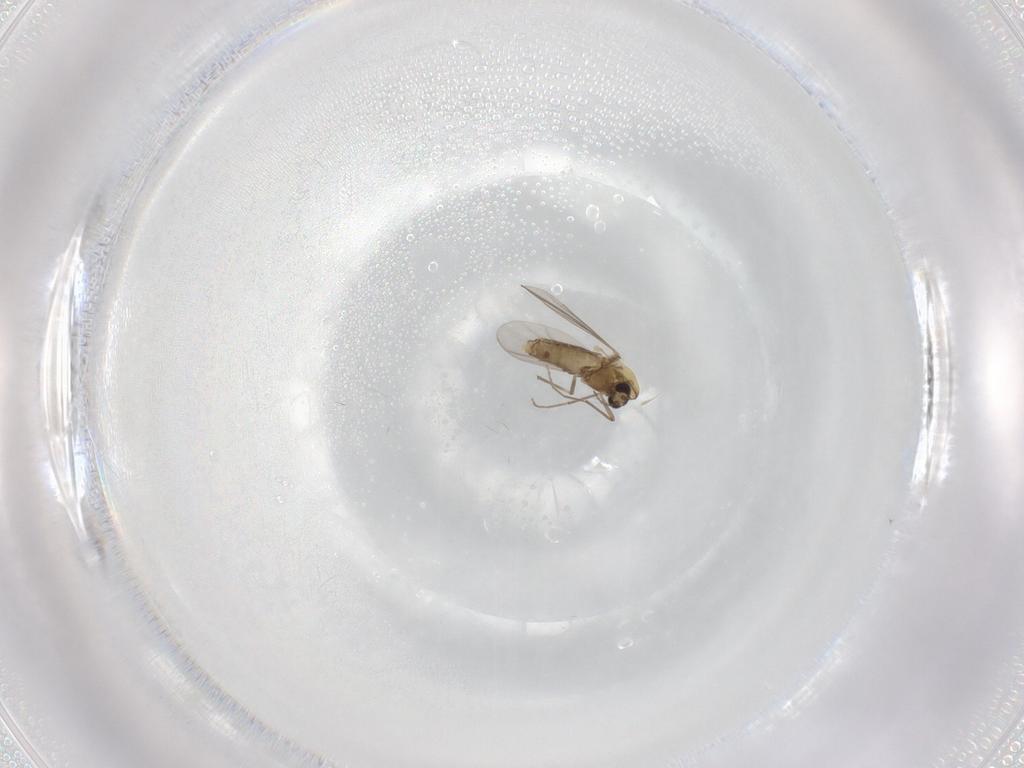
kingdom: Animalia
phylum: Arthropoda
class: Insecta
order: Diptera
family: Chironomidae
